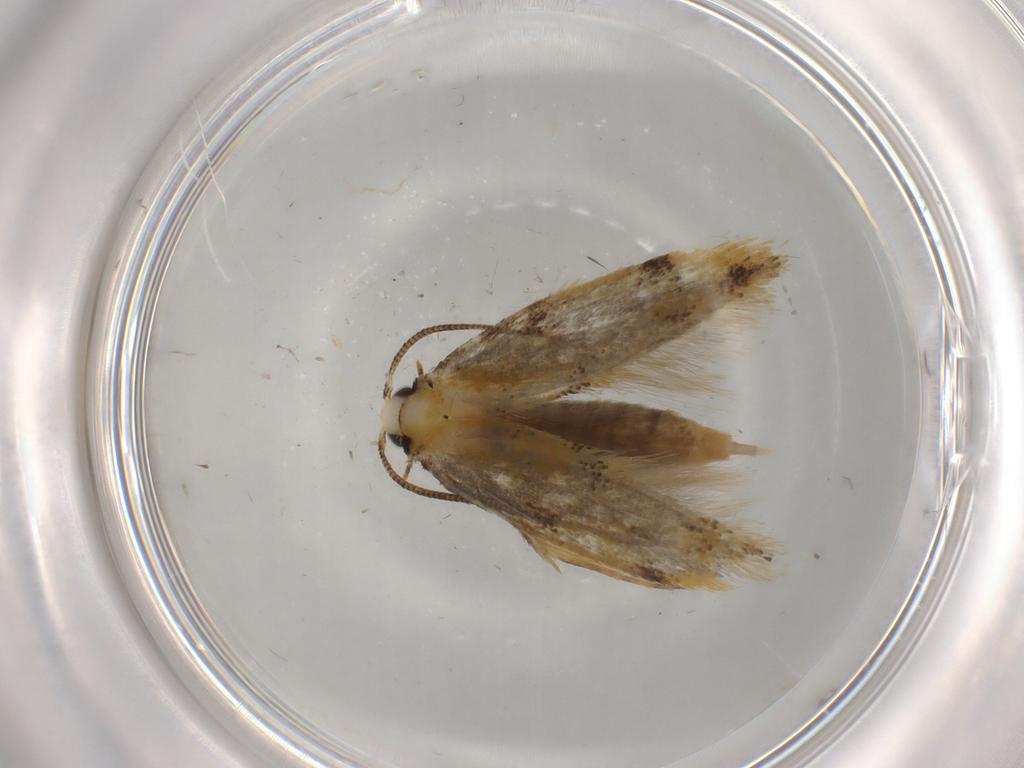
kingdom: Animalia
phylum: Arthropoda
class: Insecta
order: Lepidoptera
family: Tineidae
